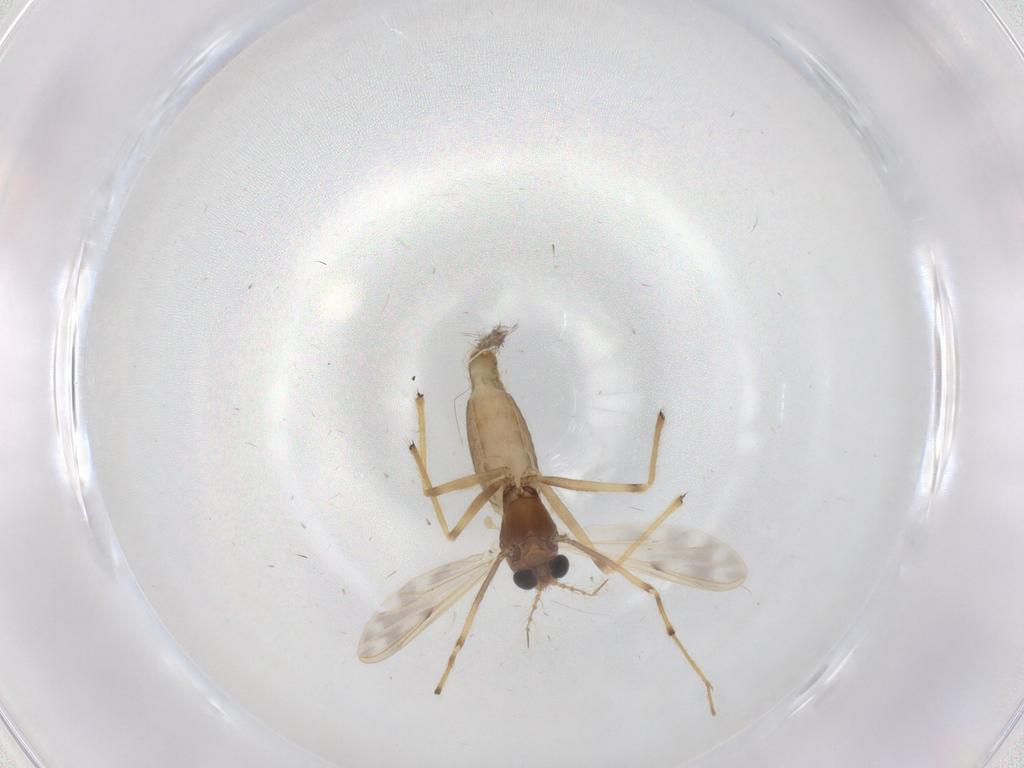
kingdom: Animalia
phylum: Arthropoda
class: Insecta
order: Diptera
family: Chironomidae
